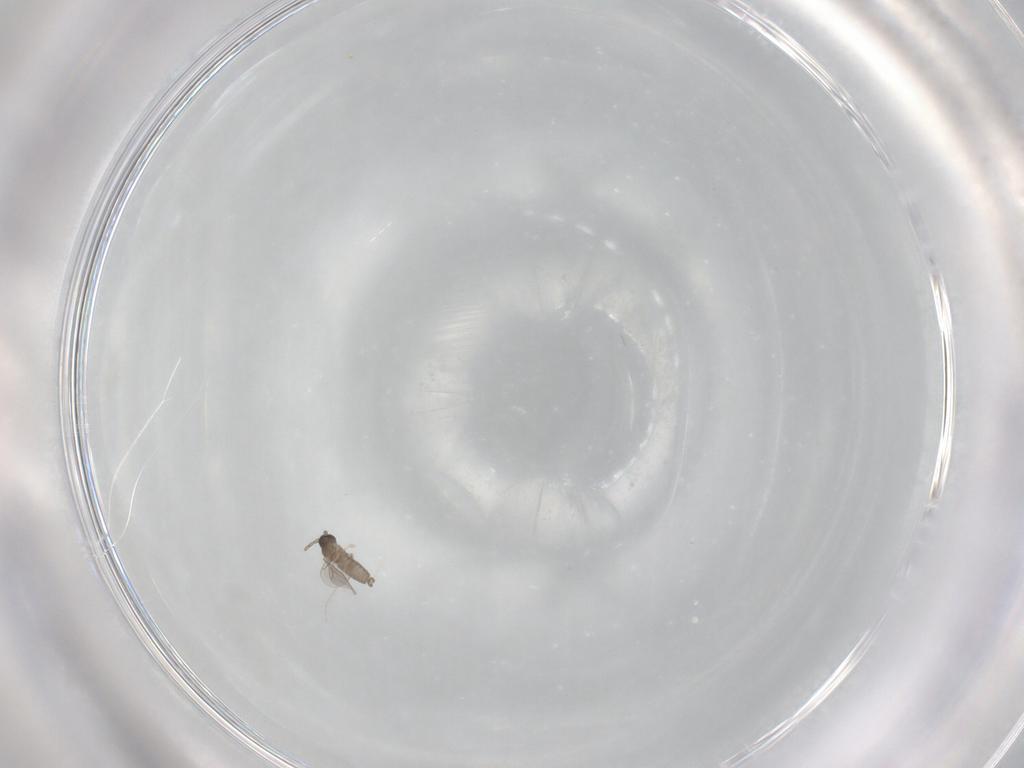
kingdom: Animalia
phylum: Arthropoda
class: Insecta
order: Diptera
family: Cecidomyiidae
